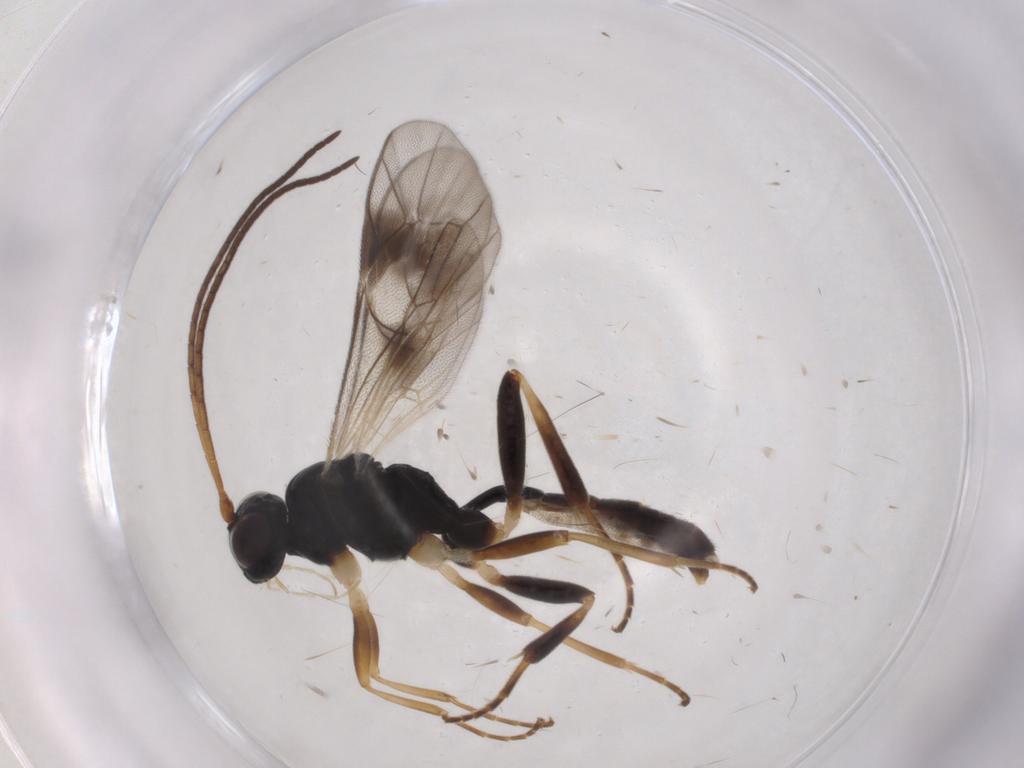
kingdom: Animalia
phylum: Arthropoda
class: Insecta
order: Hymenoptera
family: Ichneumonidae
